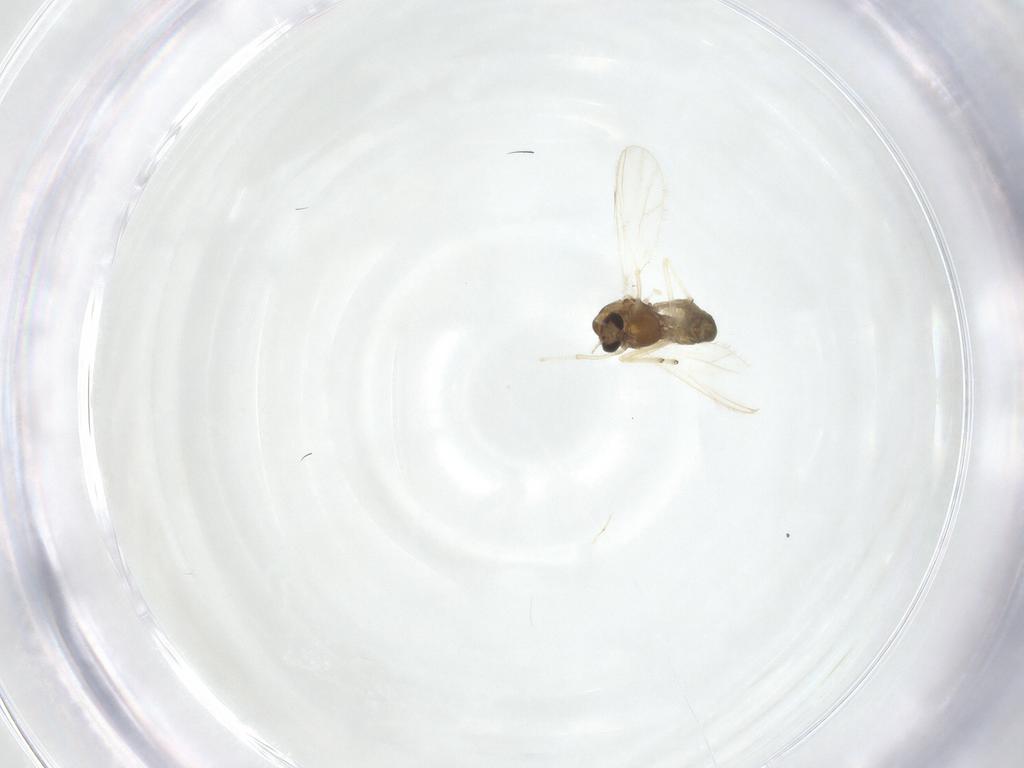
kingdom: Animalia
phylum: Arthropoda
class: Insecta
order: Diptera
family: Chironomidae
